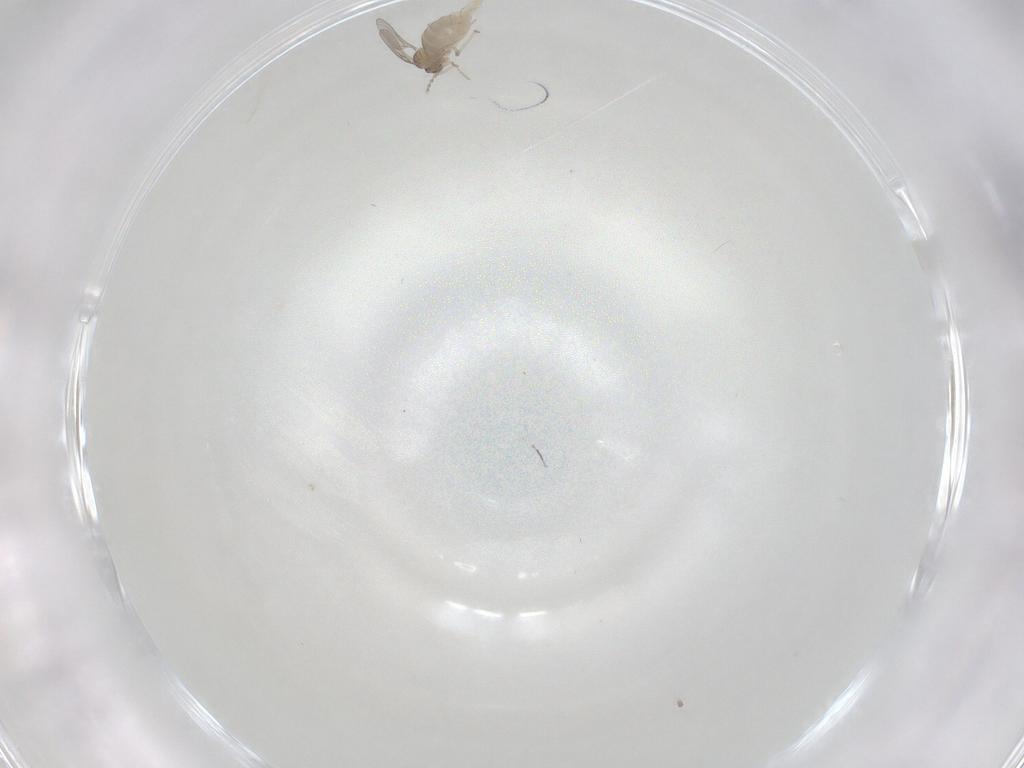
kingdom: Animalia
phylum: Arthropoda
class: Insecta
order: Diptera
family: Cecidomyiidae
